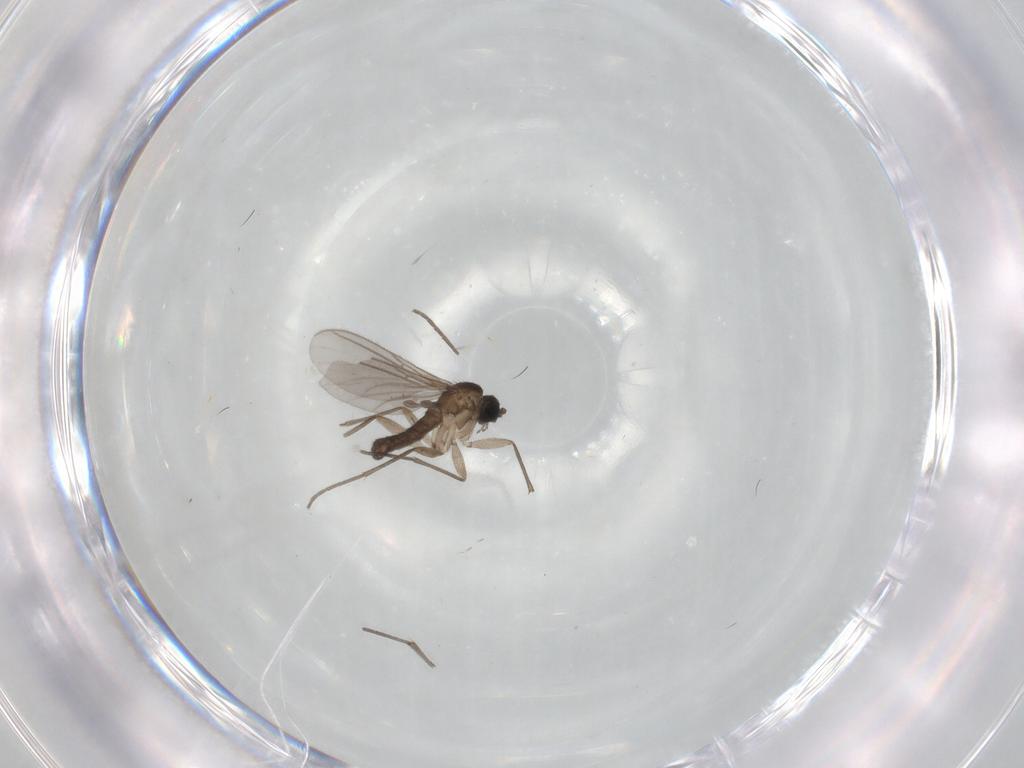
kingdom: Animalia
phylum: Arthropoda
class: Insecta
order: Diptera
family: Sciaridae
